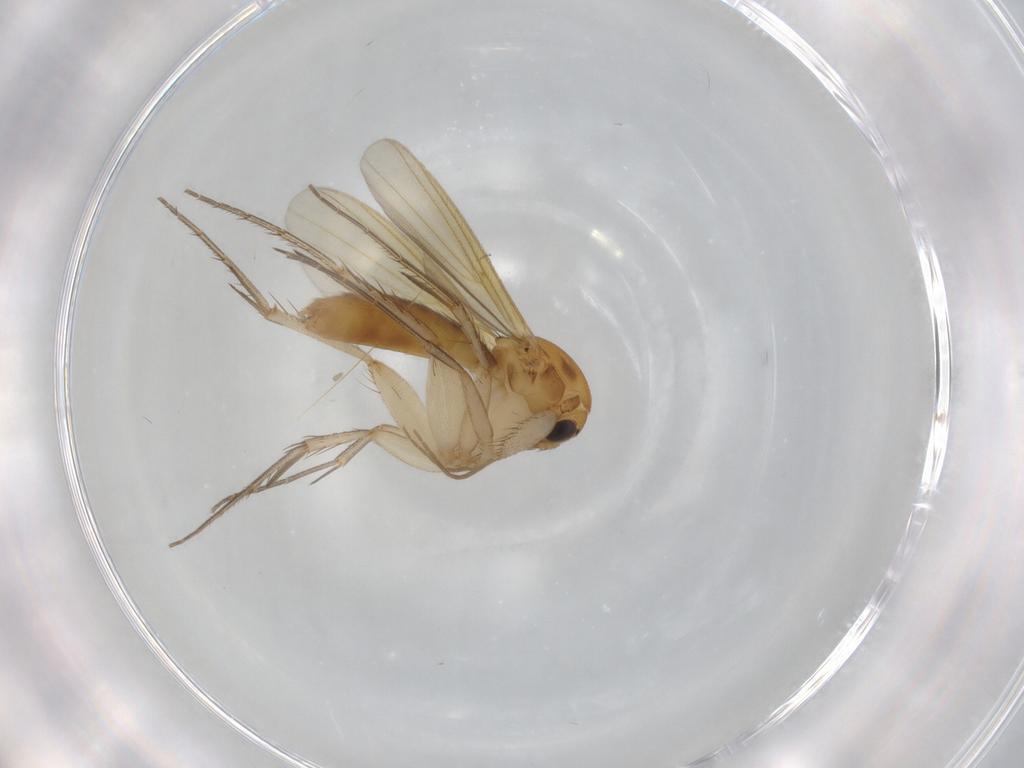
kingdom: Animalia
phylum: Arthropoda
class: Insecta
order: Diptera
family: Mycetophilidae
